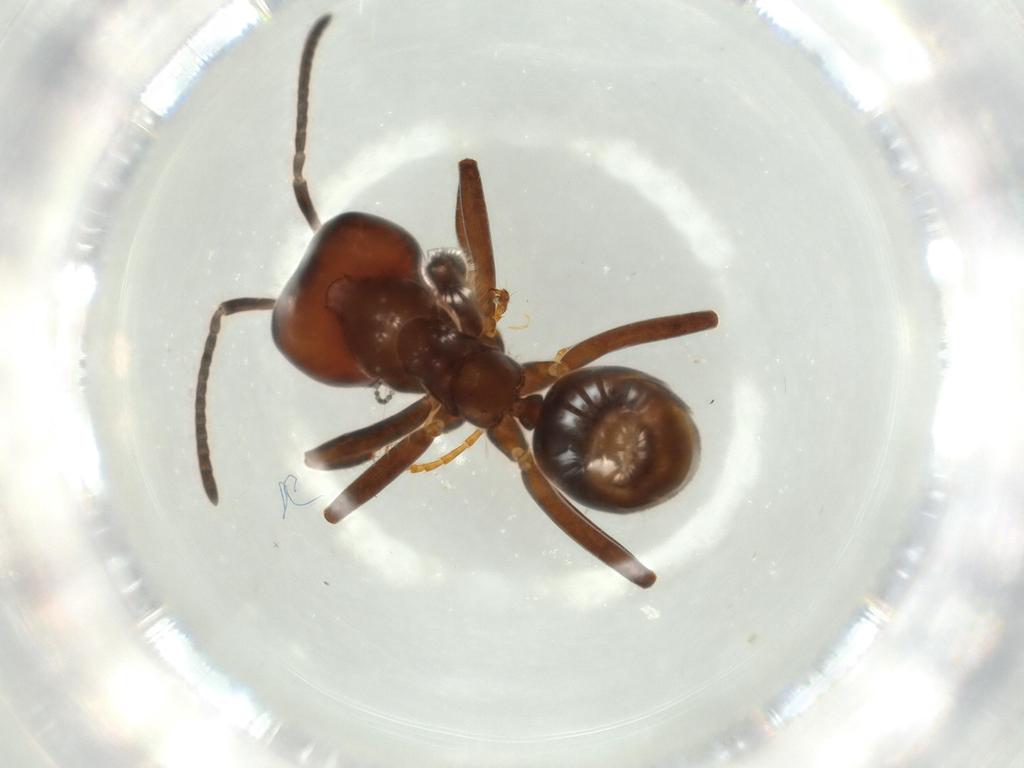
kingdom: Animalia
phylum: Arthropoda
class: Insecta
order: Hymenoptera
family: Formicidae
